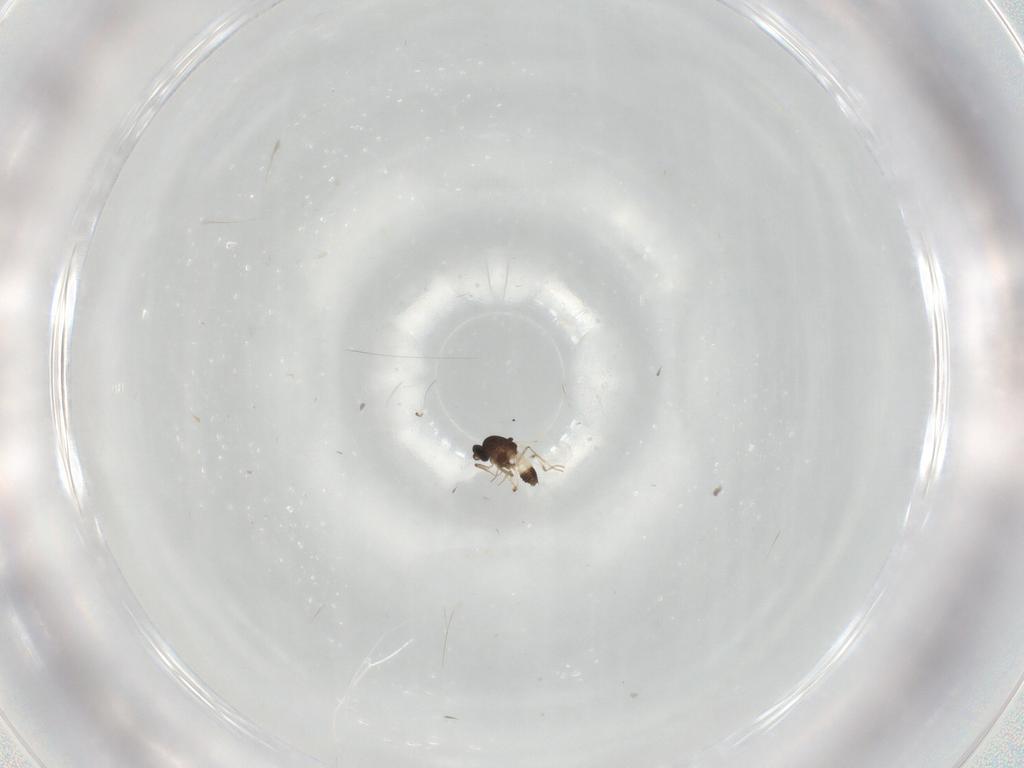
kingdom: Animalia
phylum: Arthropoda
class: Insecta
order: Diptera
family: Ceratopogonidae
